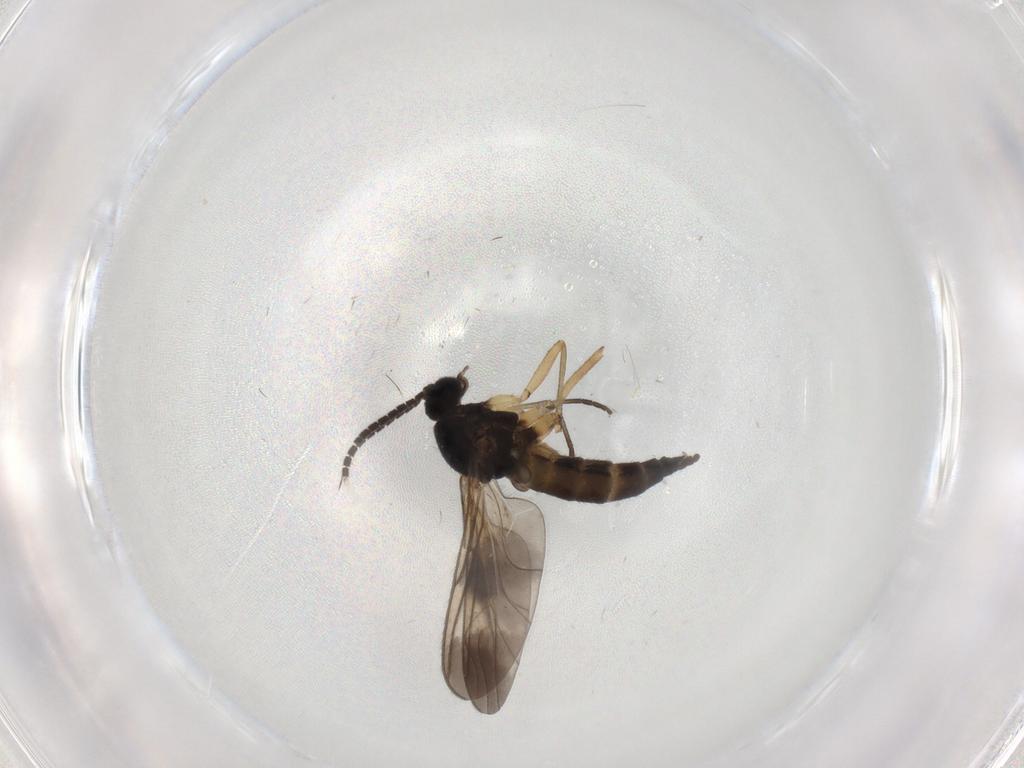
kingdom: Animalia
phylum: Arthropoda
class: Insecta
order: Diptera
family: Sciaridae
